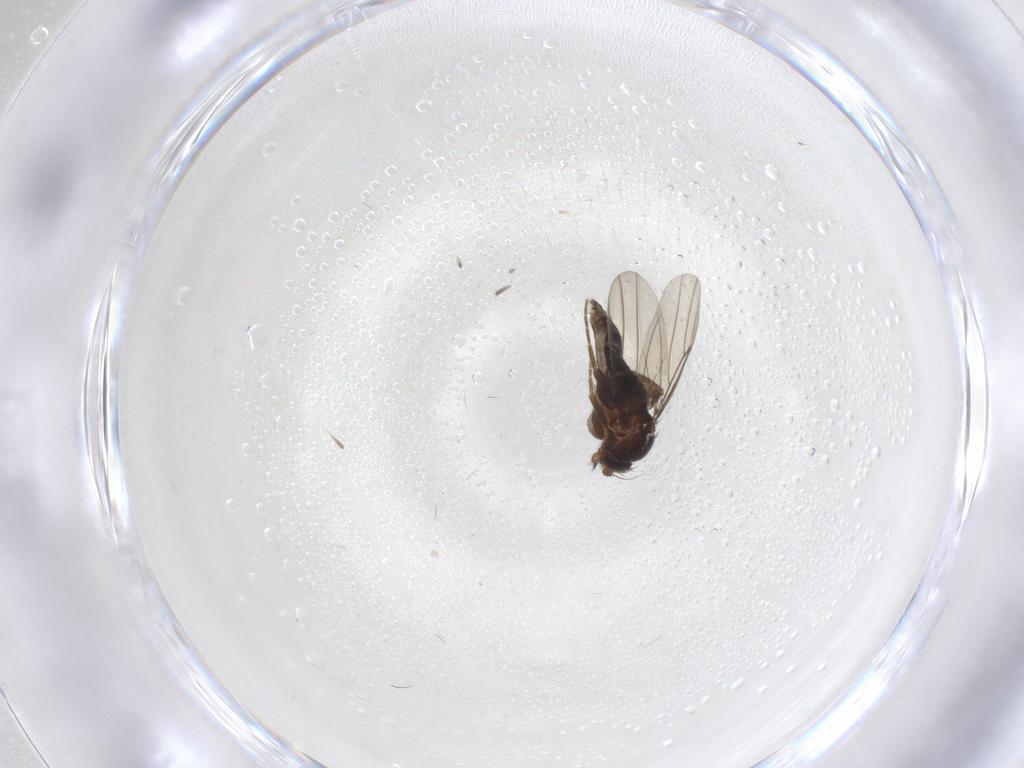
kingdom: Animalia
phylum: Arthropoda
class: Insecta
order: Diptera
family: Phoridae
